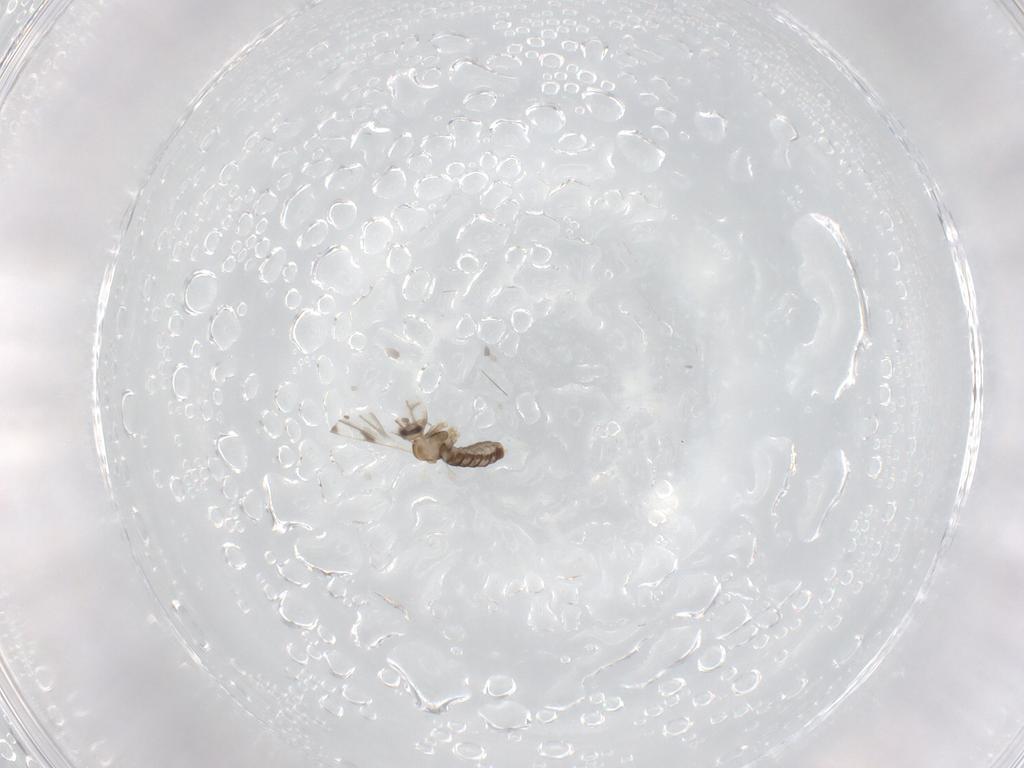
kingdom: Animalia
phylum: Arthropoda
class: Insecta
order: Diptera
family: Cecidomyiidae
